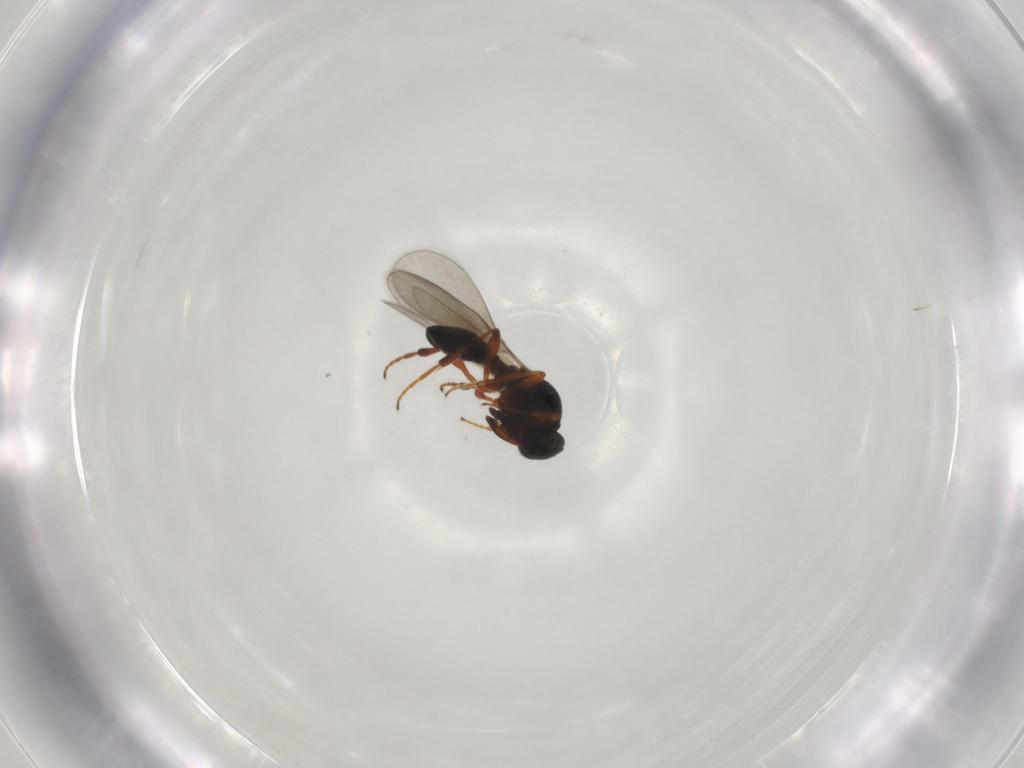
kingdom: Animalia
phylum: Arthropoda
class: Insecta
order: Hymenoptera
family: Platygastridae
